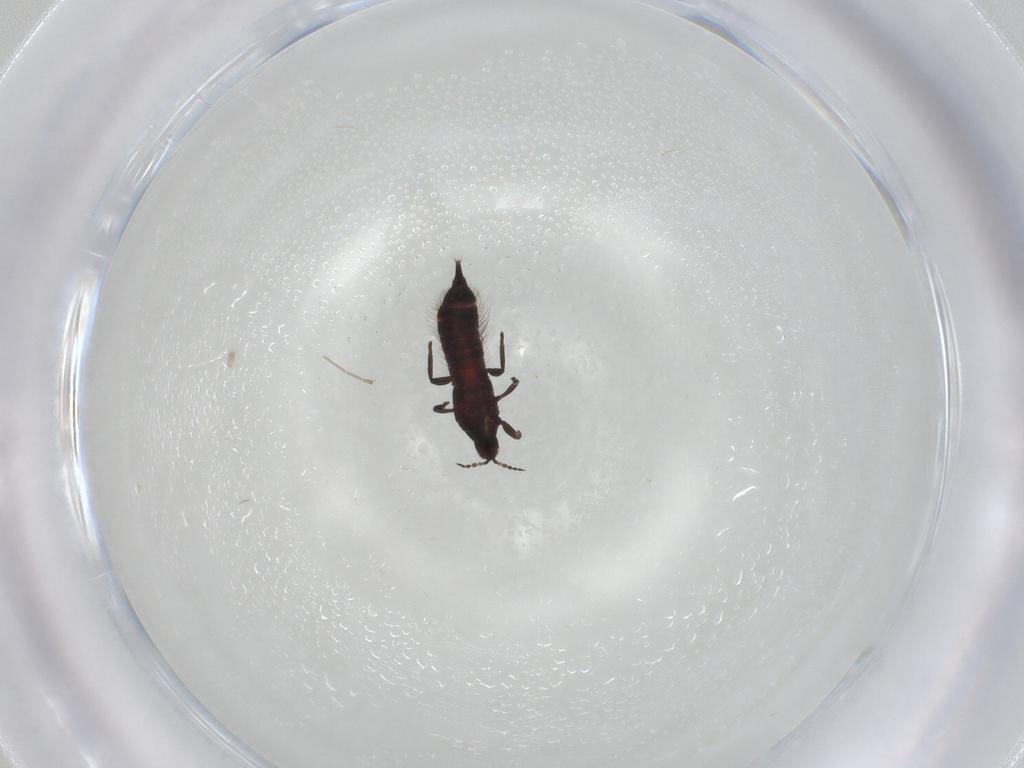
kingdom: Animalia
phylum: Arthropoda
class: Insecta
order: Thysanoptera
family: Phlaeothripidae
